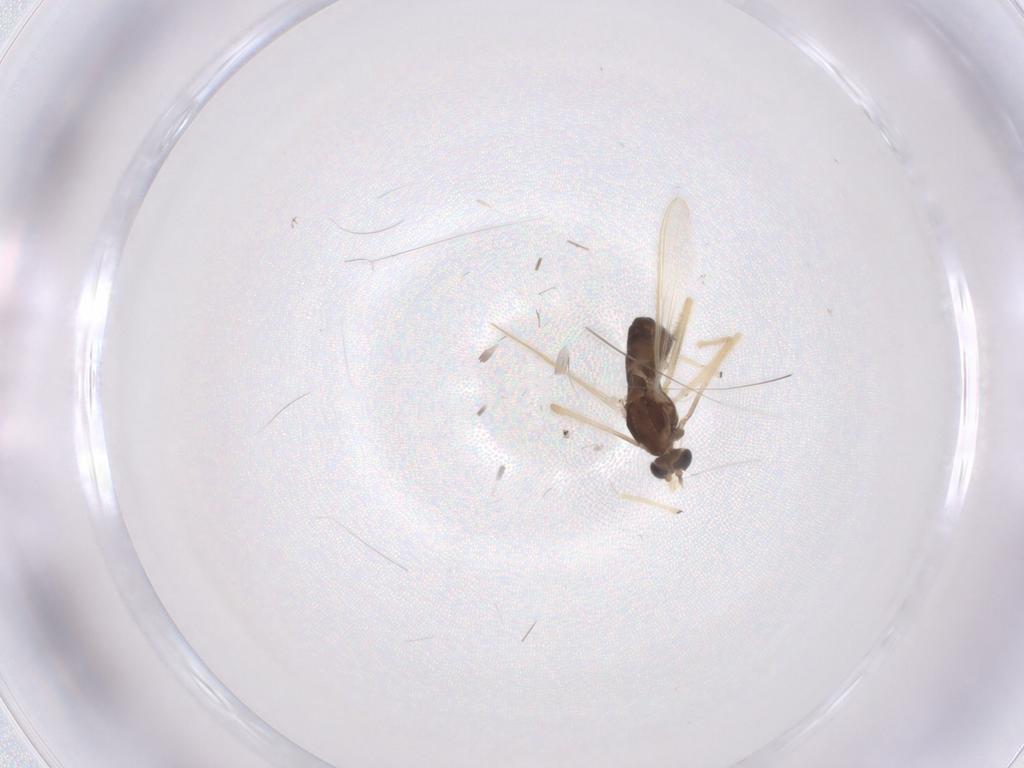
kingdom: Animalia
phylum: Arthropoda
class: Insecta
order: Diptera
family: Chironomidae
